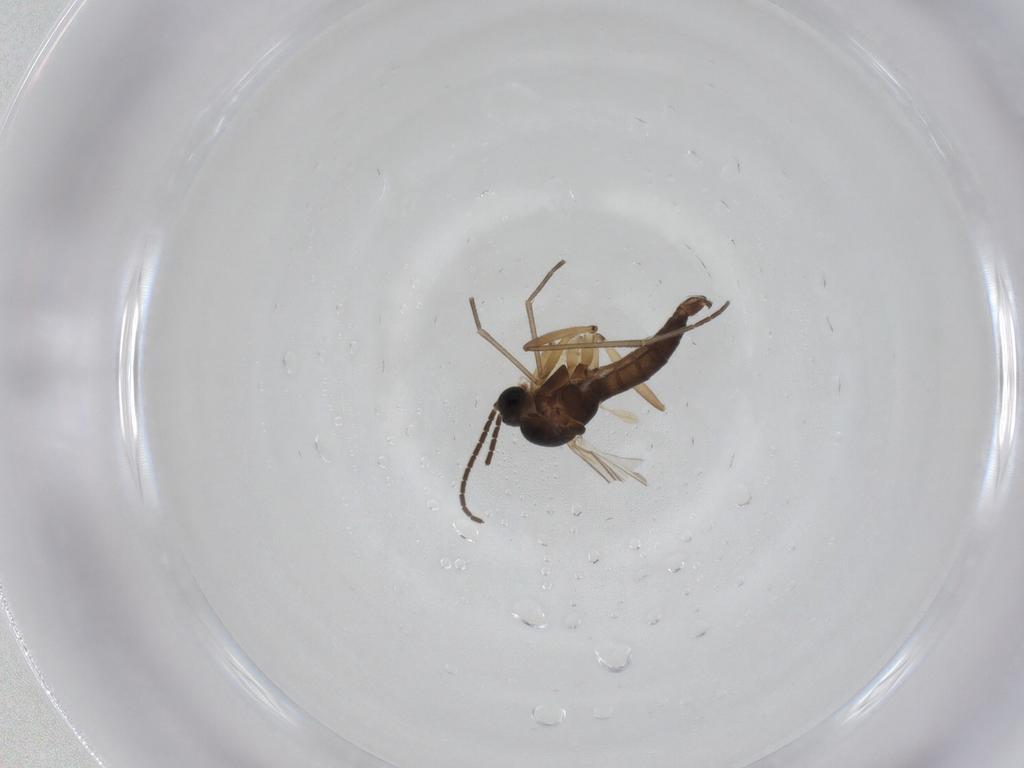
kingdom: Animalia
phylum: Arthropoda
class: Insecta
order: Diptera
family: Sciaridae
